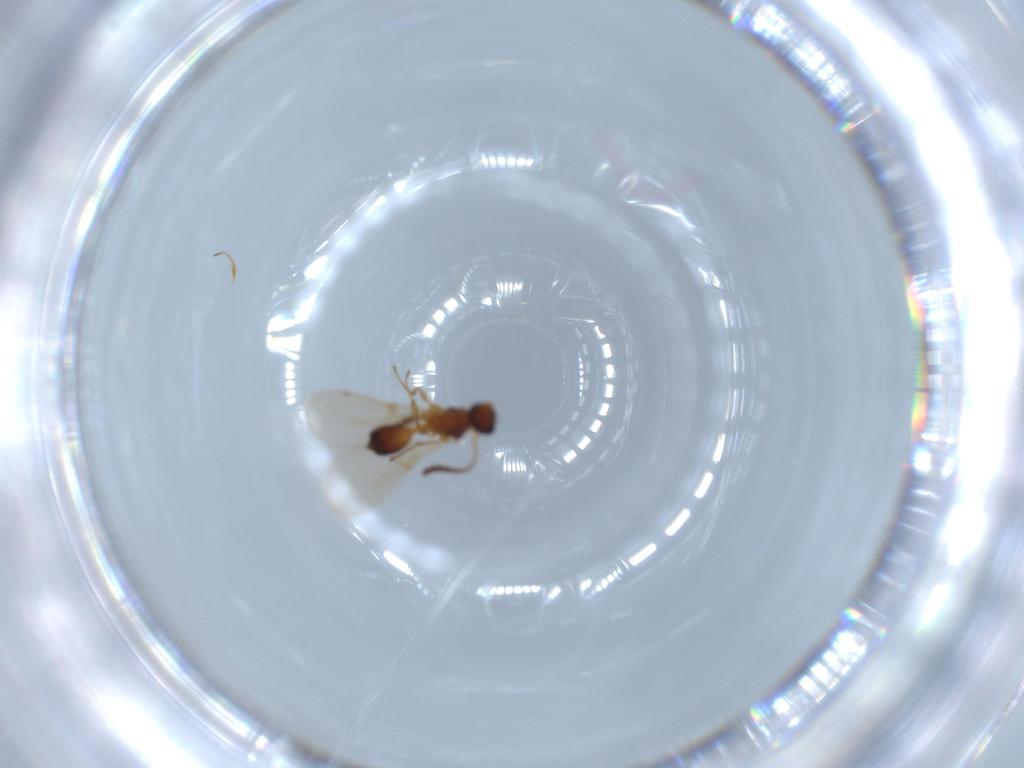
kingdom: Animalia
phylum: Arthropoda
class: Insecta
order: Hymenoptera
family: Diapriidae
